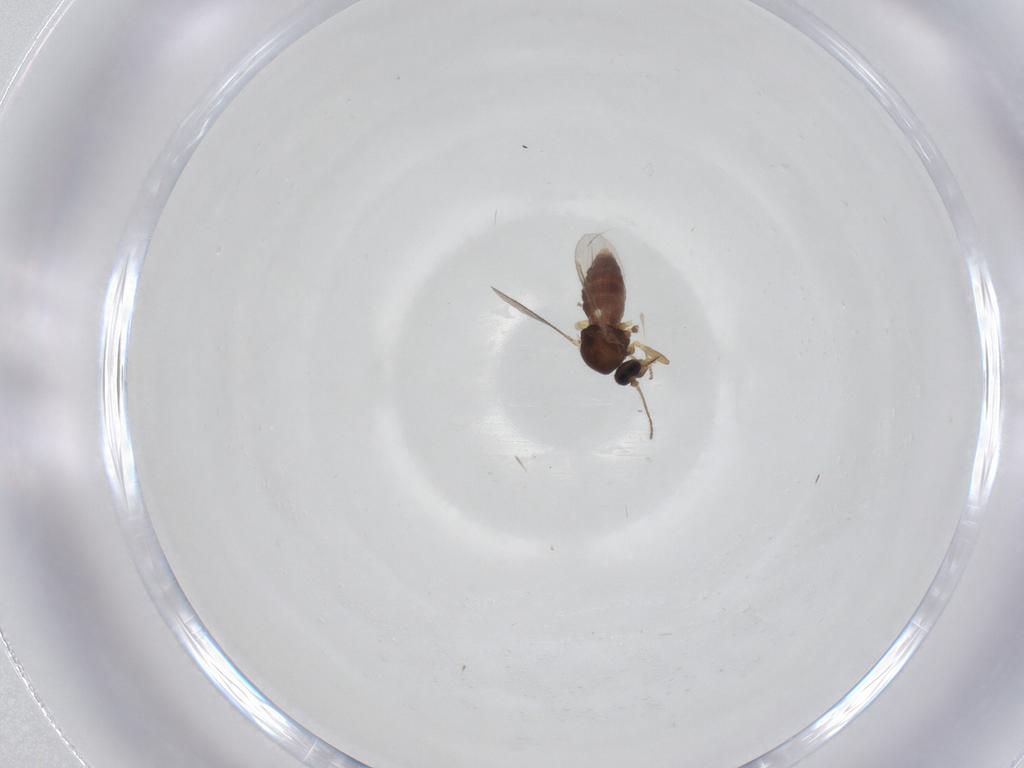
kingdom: Animalia
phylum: Arthropoda
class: Insecta
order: Diptera
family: Ceratopogonidae
